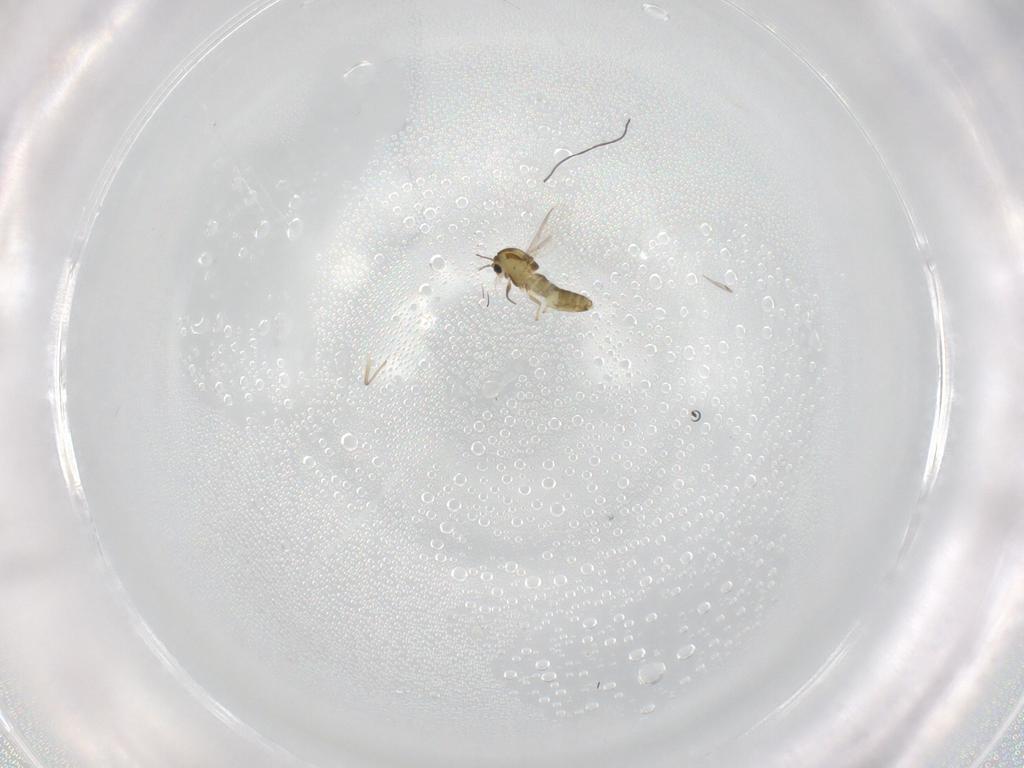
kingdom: Animalia
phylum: Arthropoda
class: Insecta
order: Diptera
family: Chironomidae
